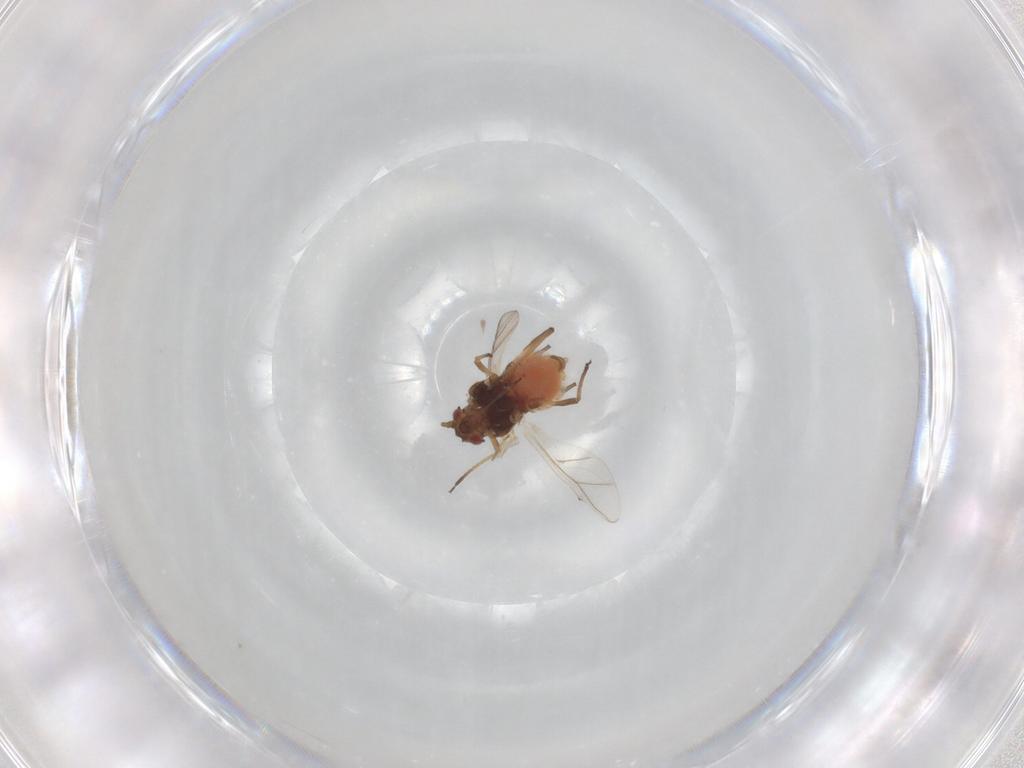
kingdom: Animalia
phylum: Arthropoda
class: Insecta
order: Hemiptera
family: Aphididae
